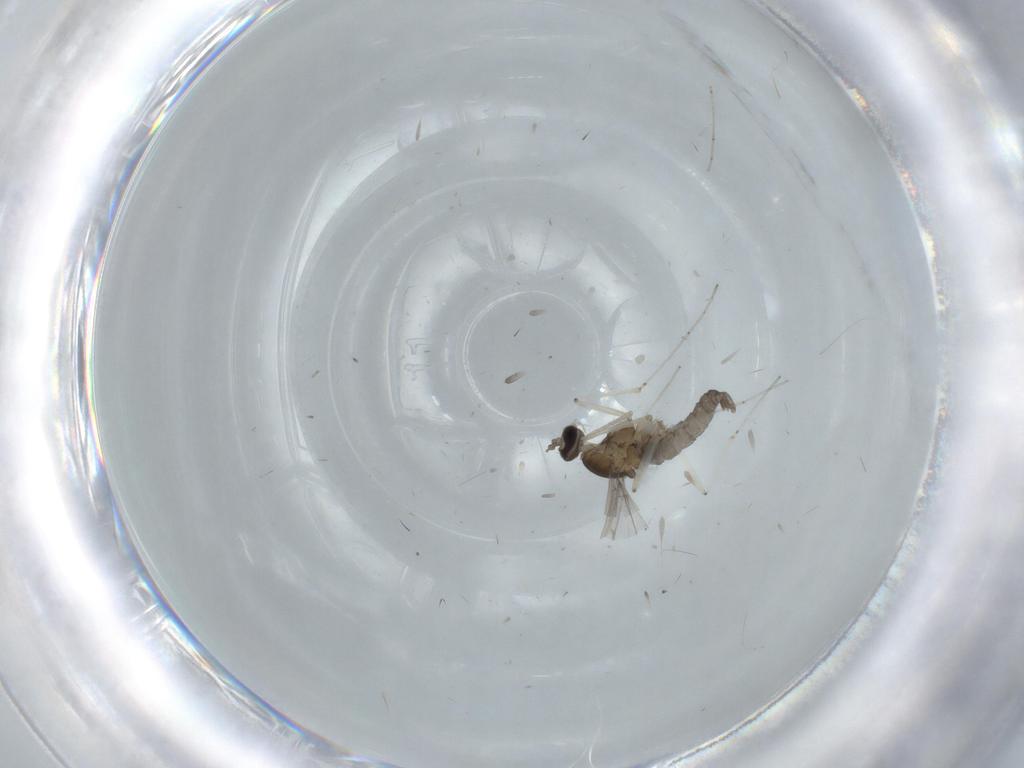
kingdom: Animalia
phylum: Arthropoda
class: Insecta
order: Diptera
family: Cecidomyiidae
